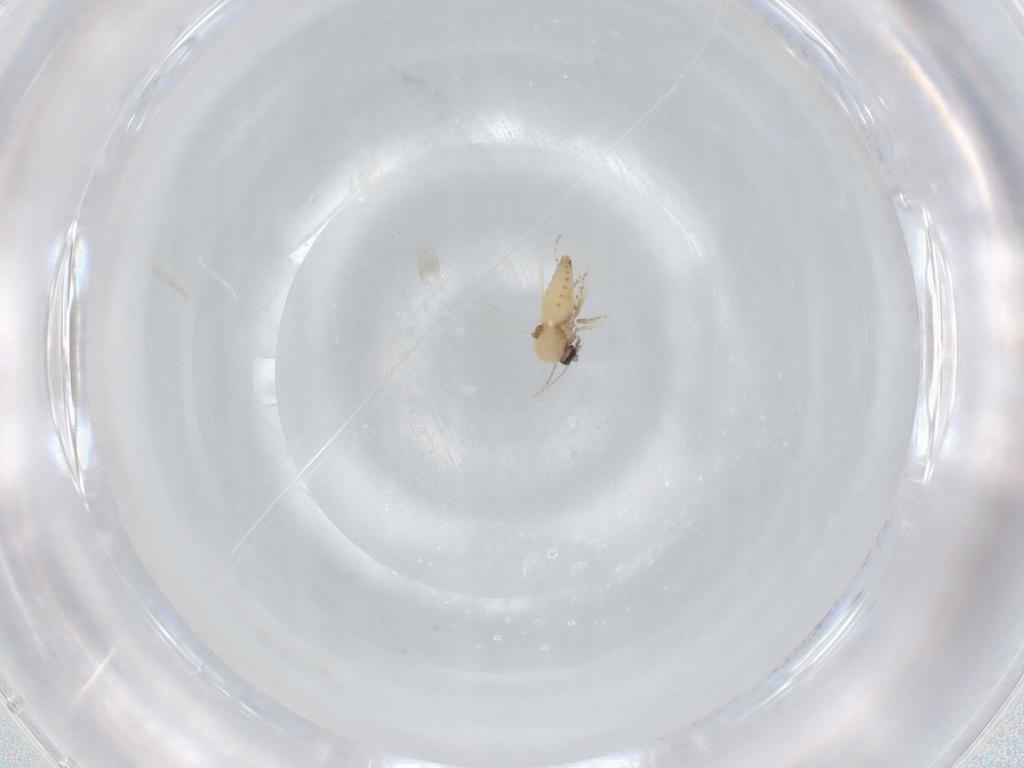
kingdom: Animalia
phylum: Arthropoda
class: Insecta
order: Diptera
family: Ceratopogonidae
